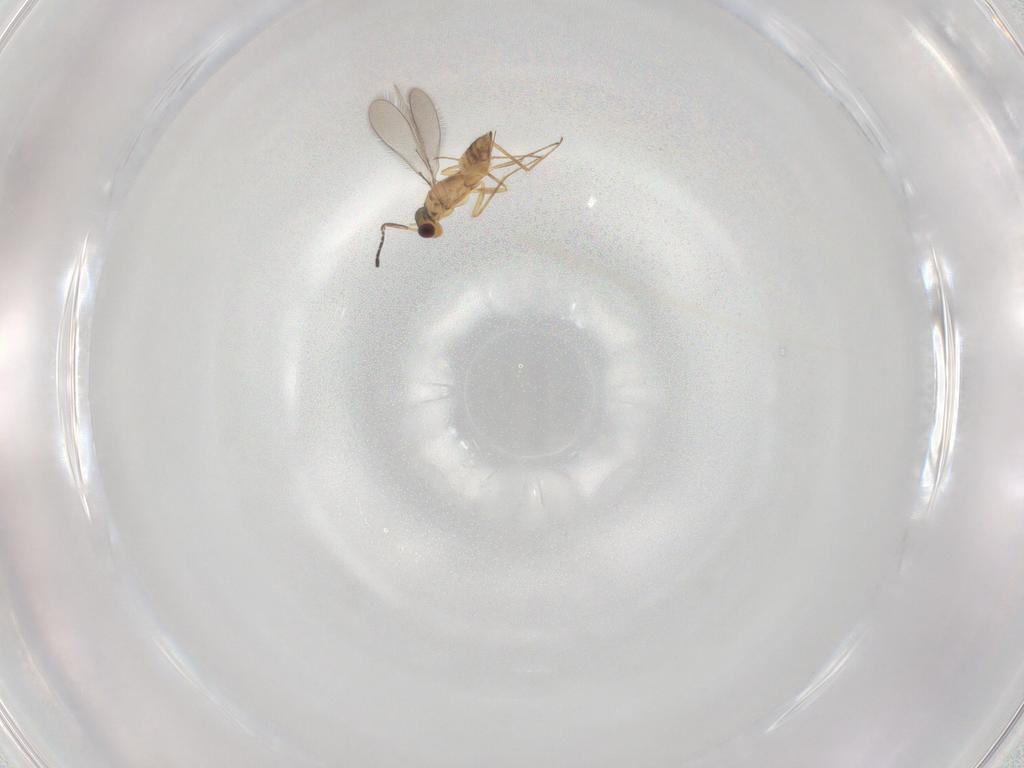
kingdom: Animalia
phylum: Arthropoda
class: Insecta
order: Hymenoptera
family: Mymaridae
